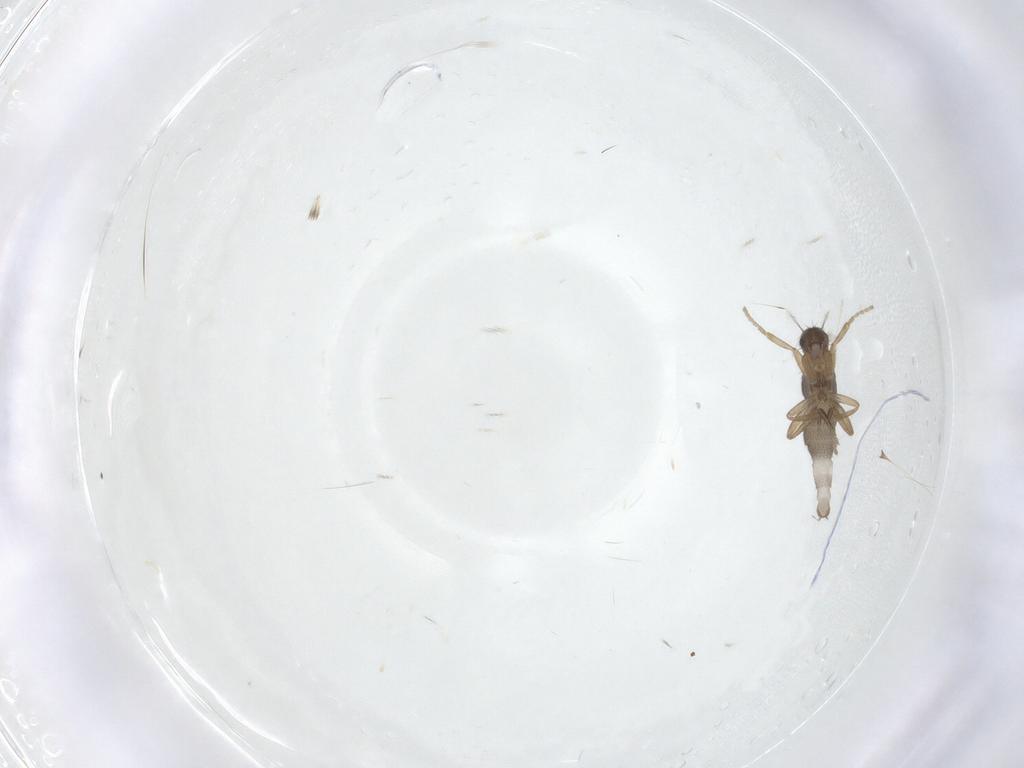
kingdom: Animalia
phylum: Arthropoda
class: Insecta
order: Diptera
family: Phoridae
